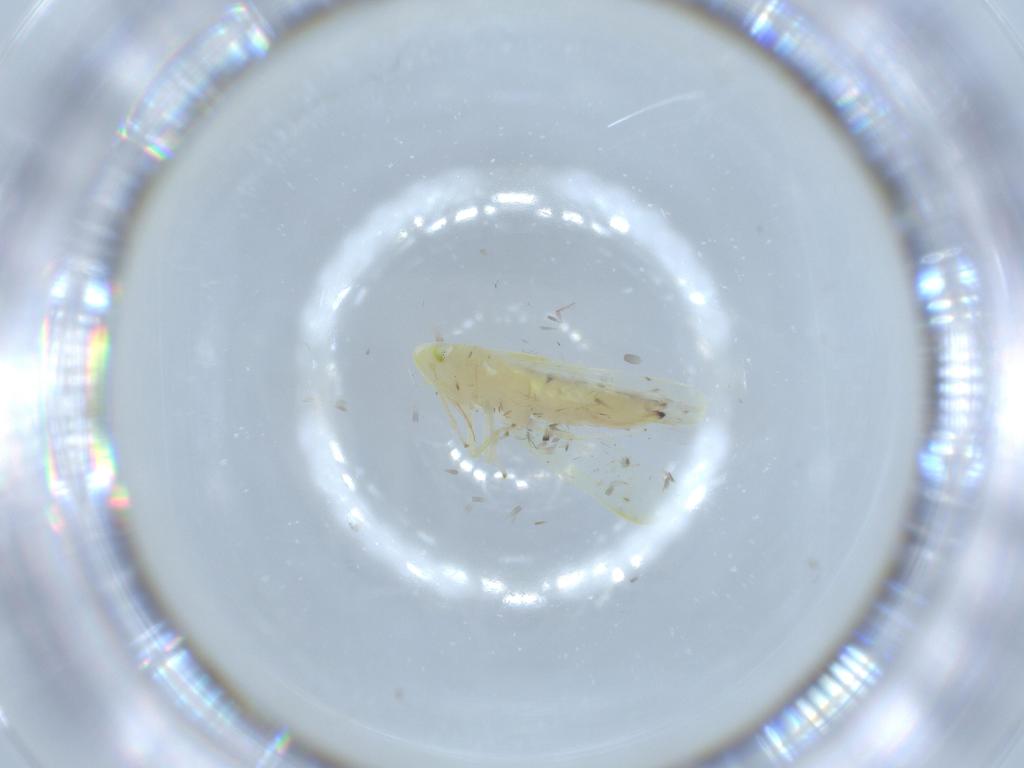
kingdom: Animalia
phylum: Arthropoda
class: Insecta
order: Hemiptera
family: Cicadellidae
